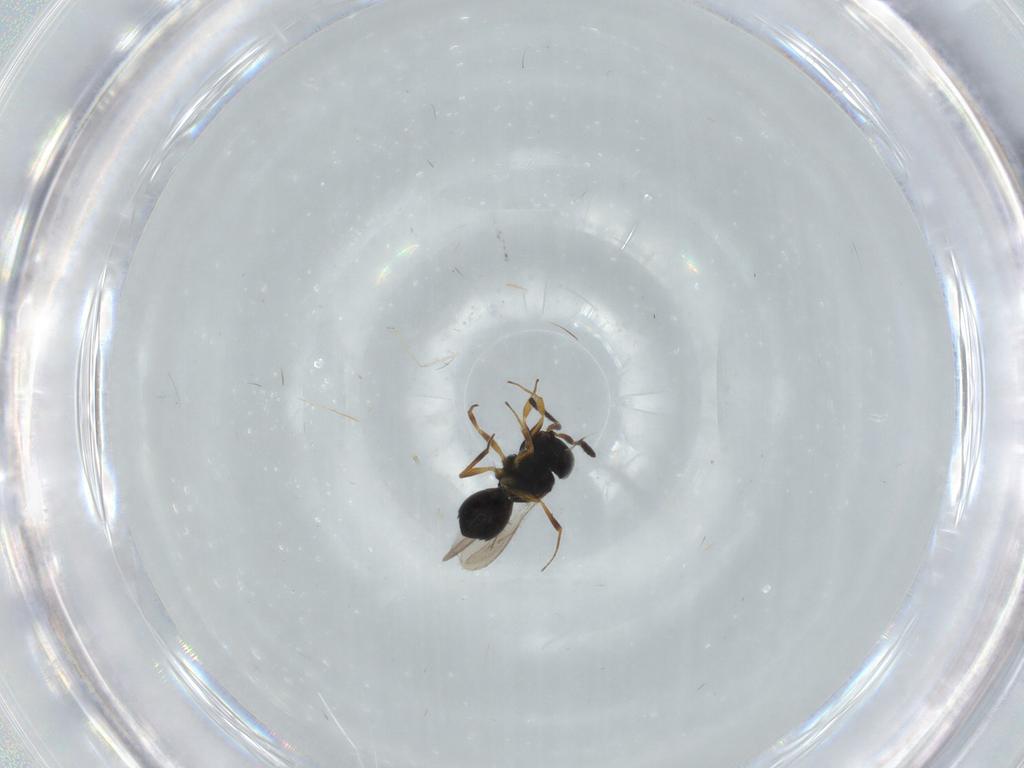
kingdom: Animalia
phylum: Arthropoda
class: Insecta
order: Hymenoptera
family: Scelionidae
